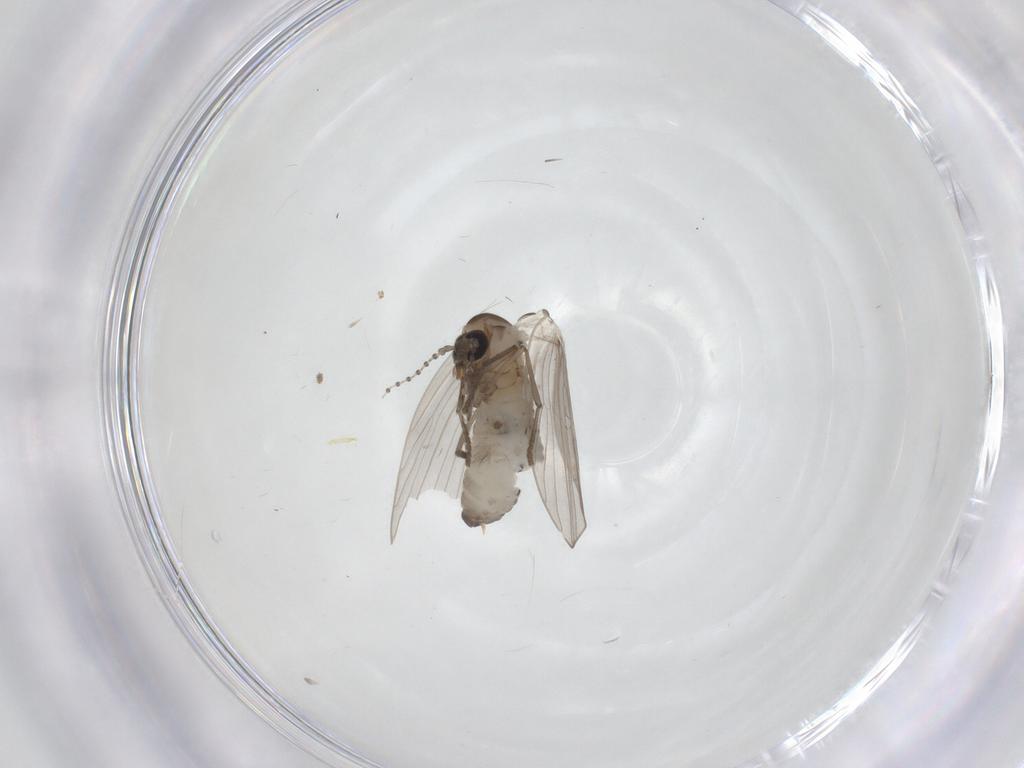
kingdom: Animalia
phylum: Arthropoda
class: Insecta
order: Diptera
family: Psychodidae
